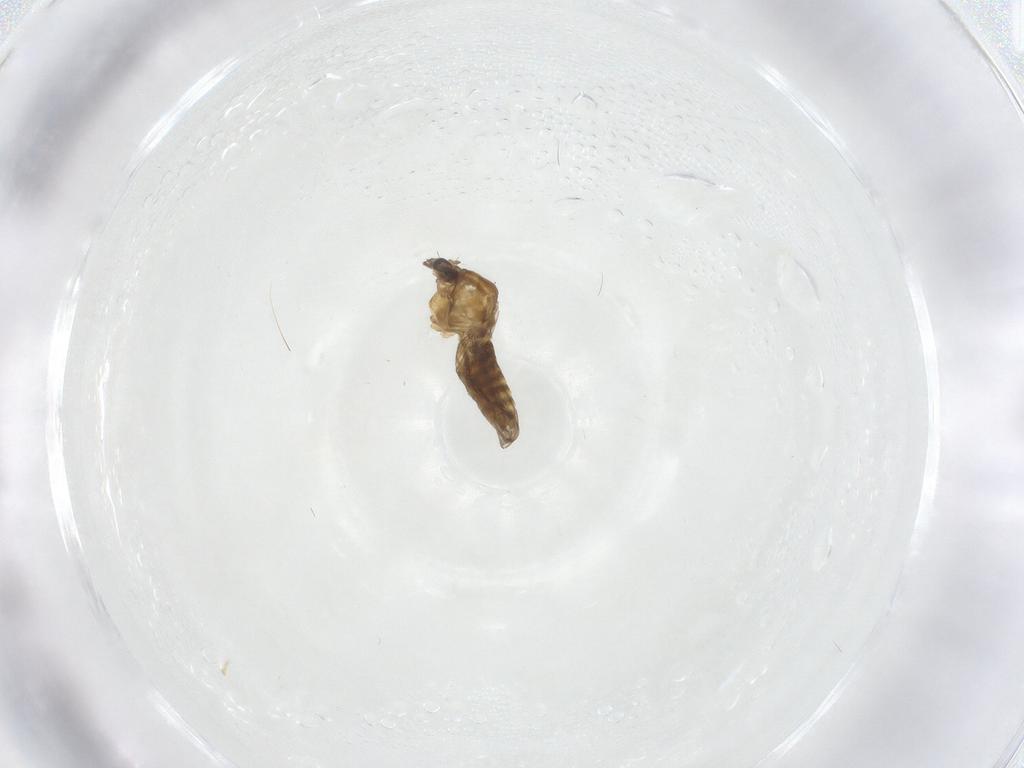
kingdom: Animalia
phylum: Arthropoda
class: Insecta
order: Diptera
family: Chironomidae
